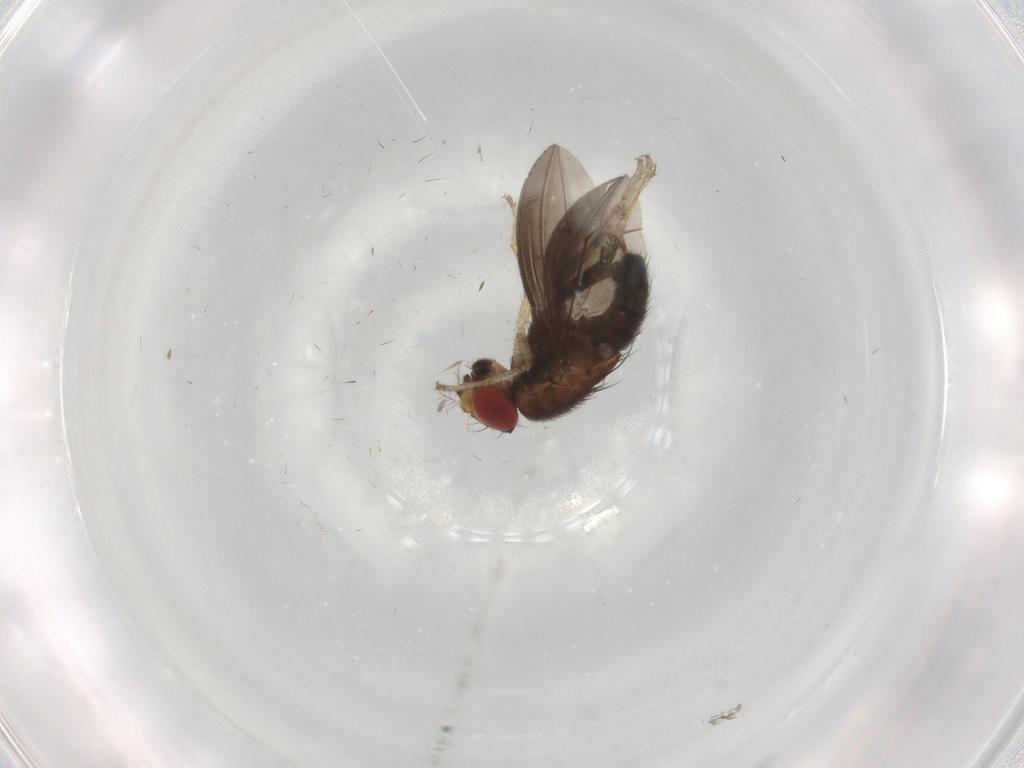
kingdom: Animalia
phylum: Arthropoda
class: Insecta
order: Diptera
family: Drosophilidae
